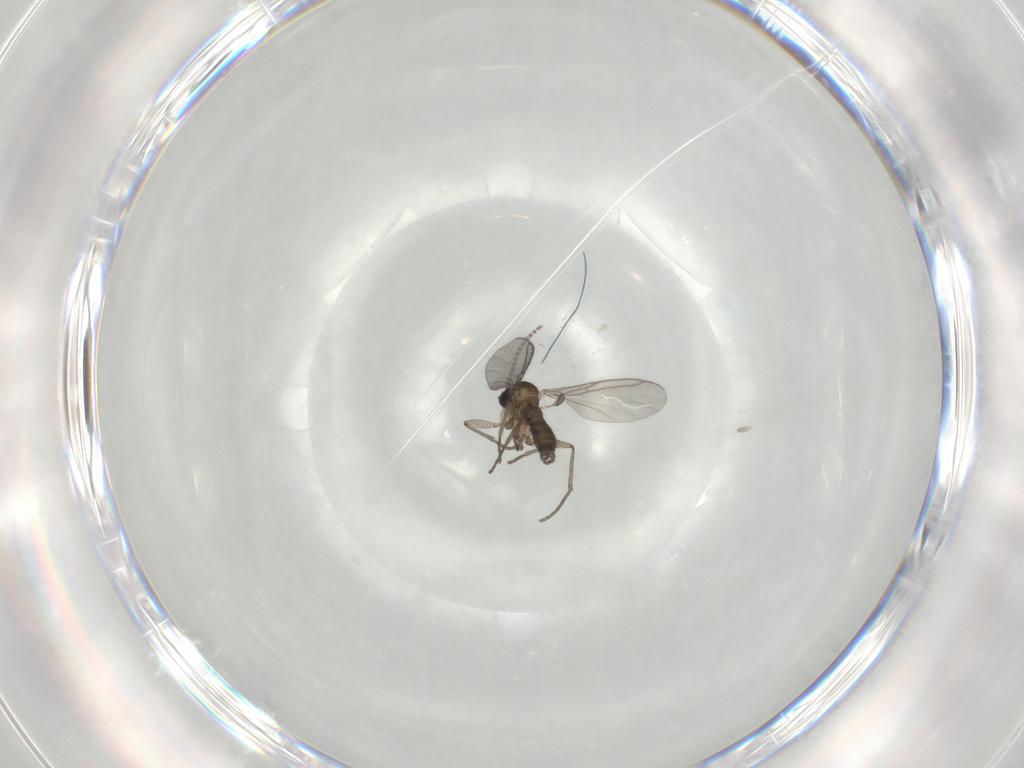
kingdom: Animalia
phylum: Arthropoda
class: Insecta
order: Diptera
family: Ceratopogonidae
